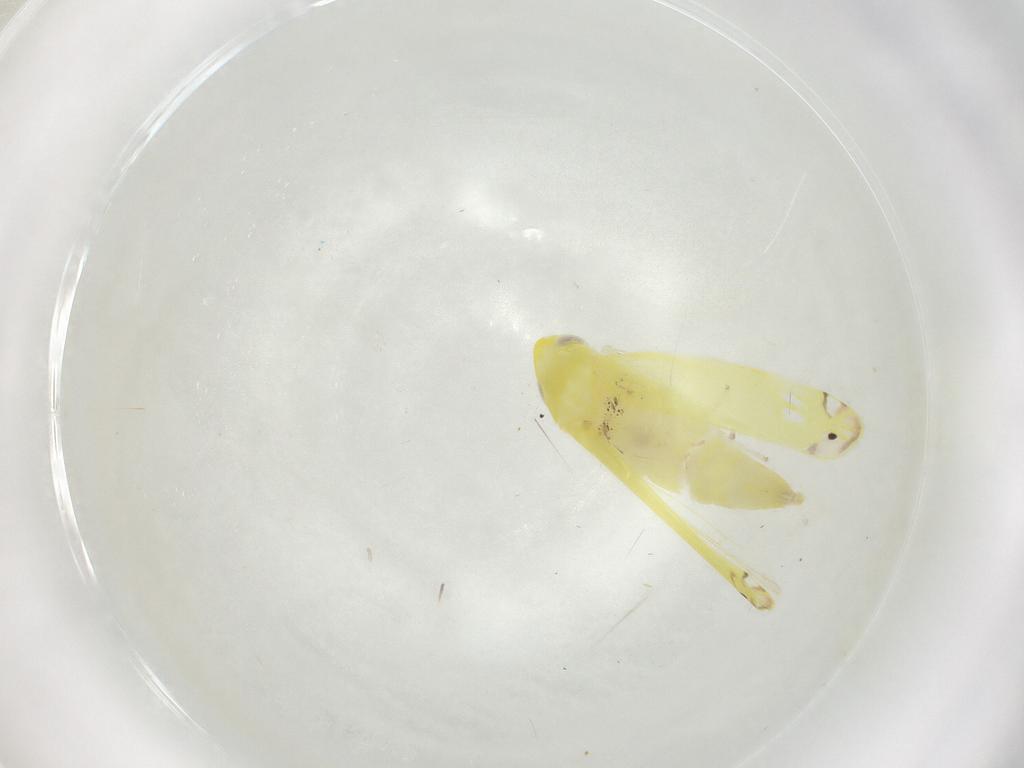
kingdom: Animalia
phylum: Arthropoda
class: Insecta
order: Hemiptera
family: Cicadellidae
